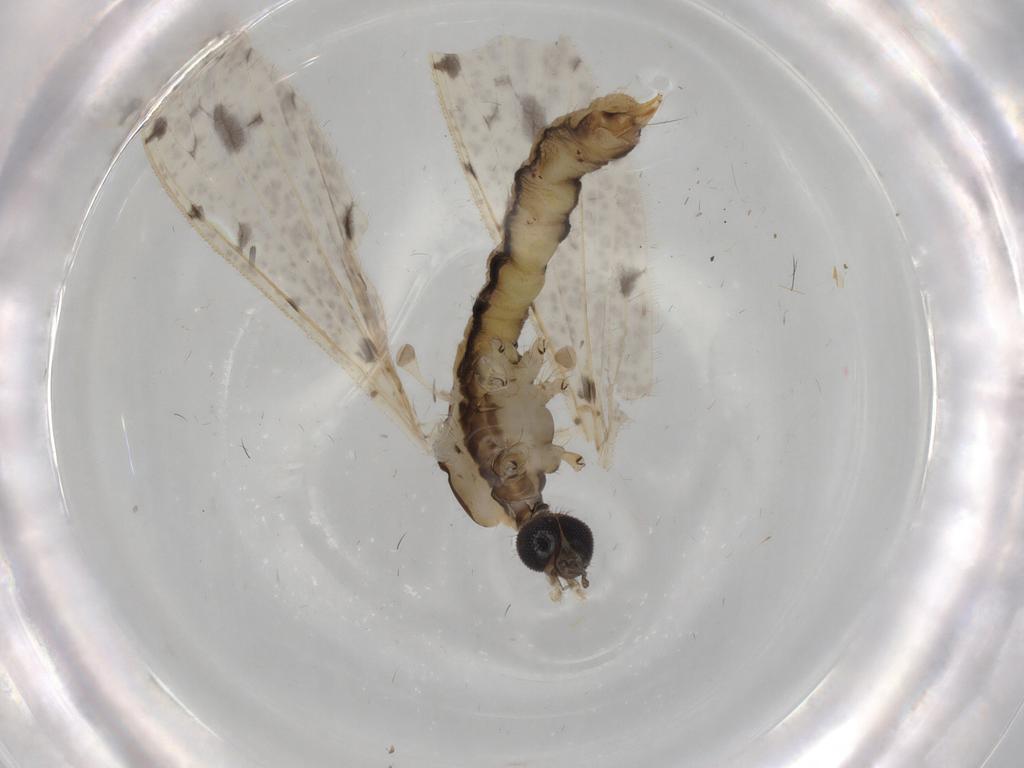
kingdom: Animalia
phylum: Arthropoda
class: Insecta
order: Diptera
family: Limoniidae
